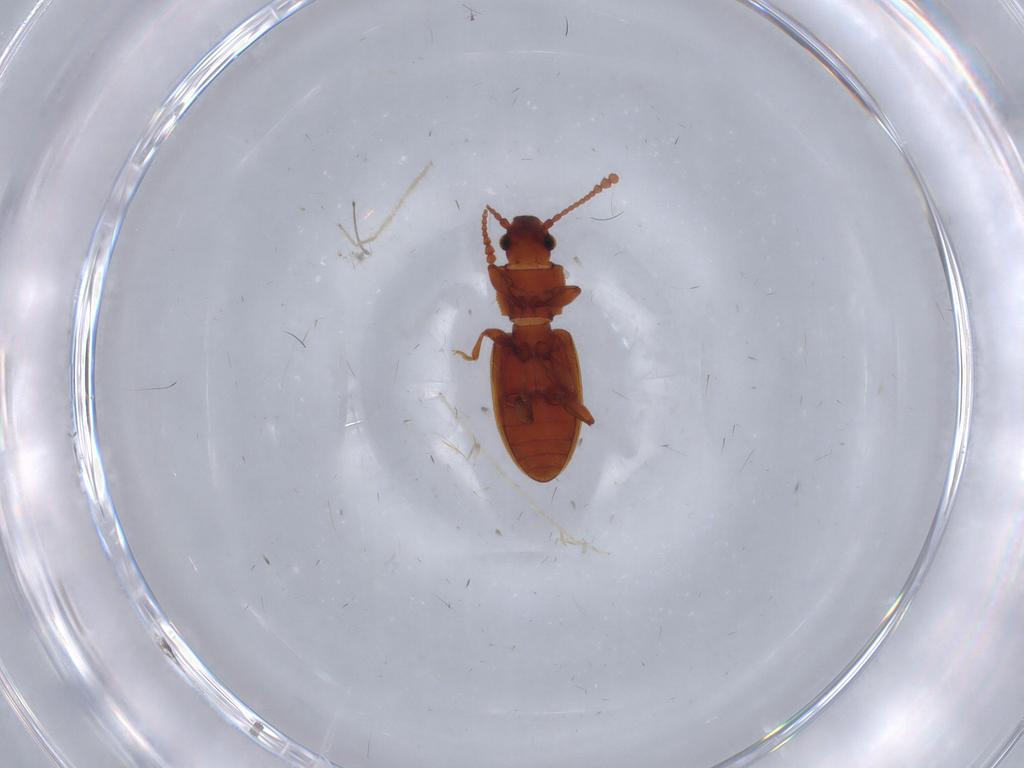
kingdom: Animalia
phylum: Arthropoda
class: Insecta
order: Coleoptera
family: Silvanidae
